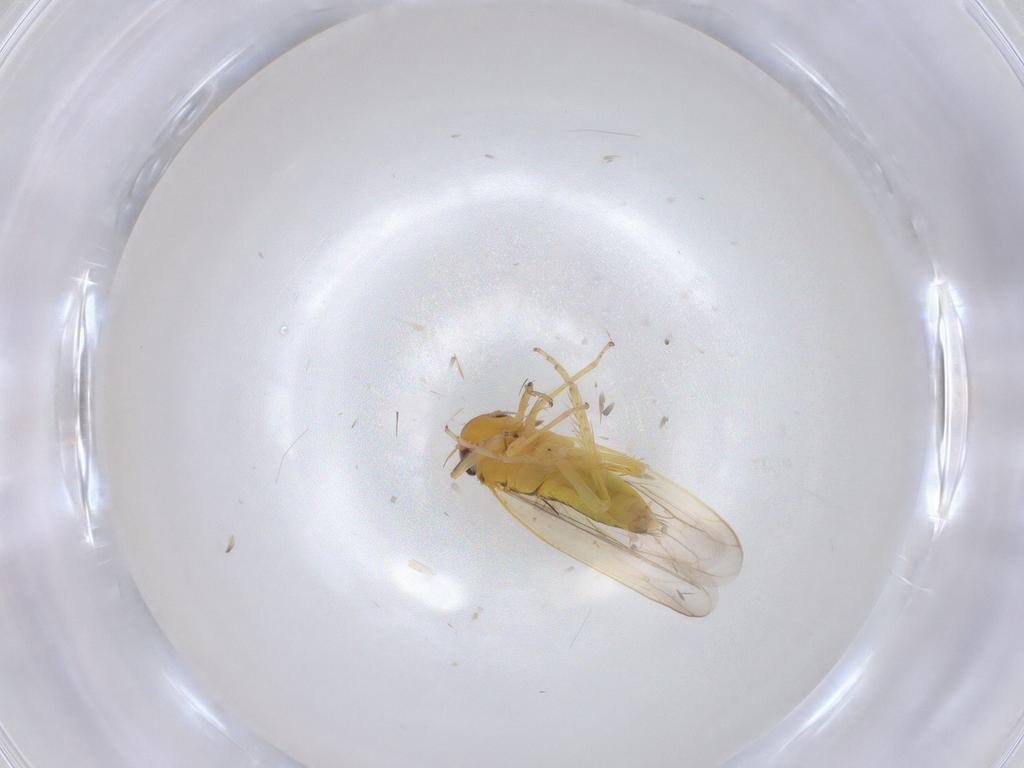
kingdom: Animalia
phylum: Arthropoda
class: Insecta
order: Hemiptera
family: Cicadellidae
